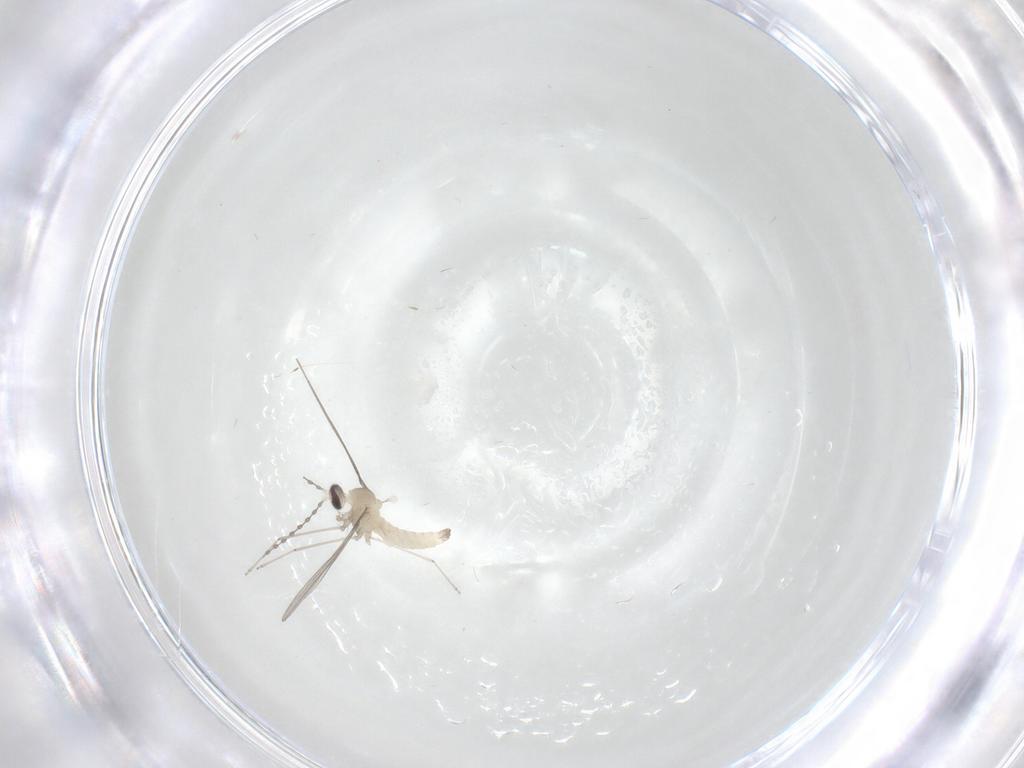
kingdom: Animalia
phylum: Arthropoda
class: Insecta
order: Diptera
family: Cecidomyiidae
